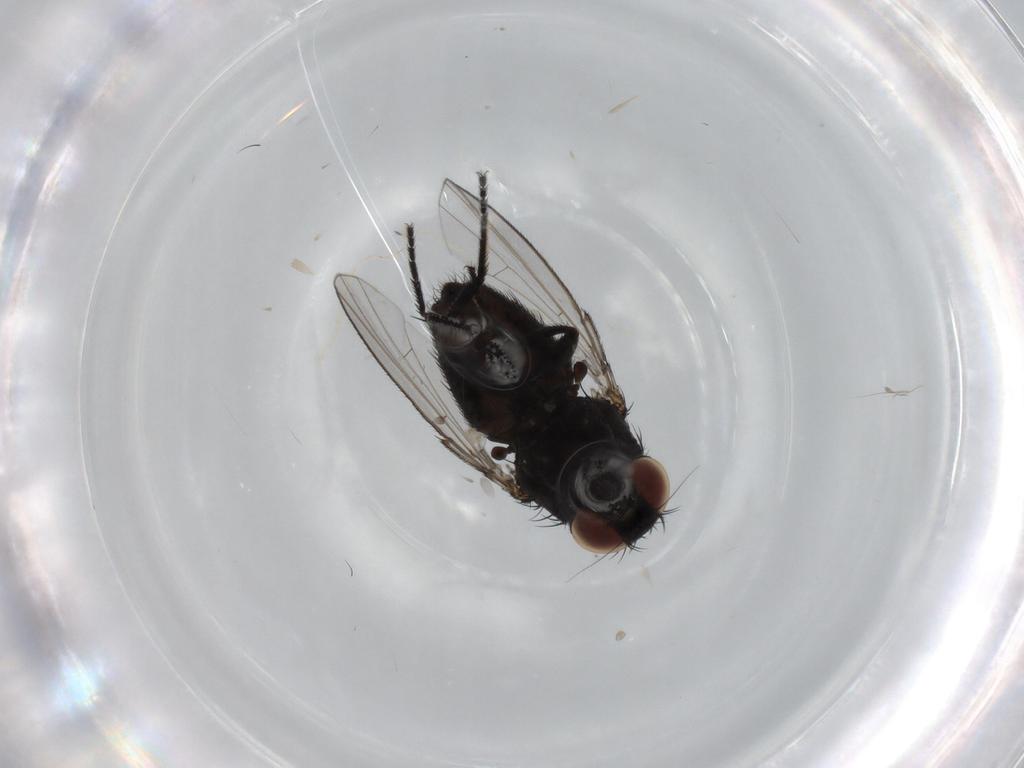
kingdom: Animalia
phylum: Arthropoda
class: Insecta
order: Diptera
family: Milichiidae
